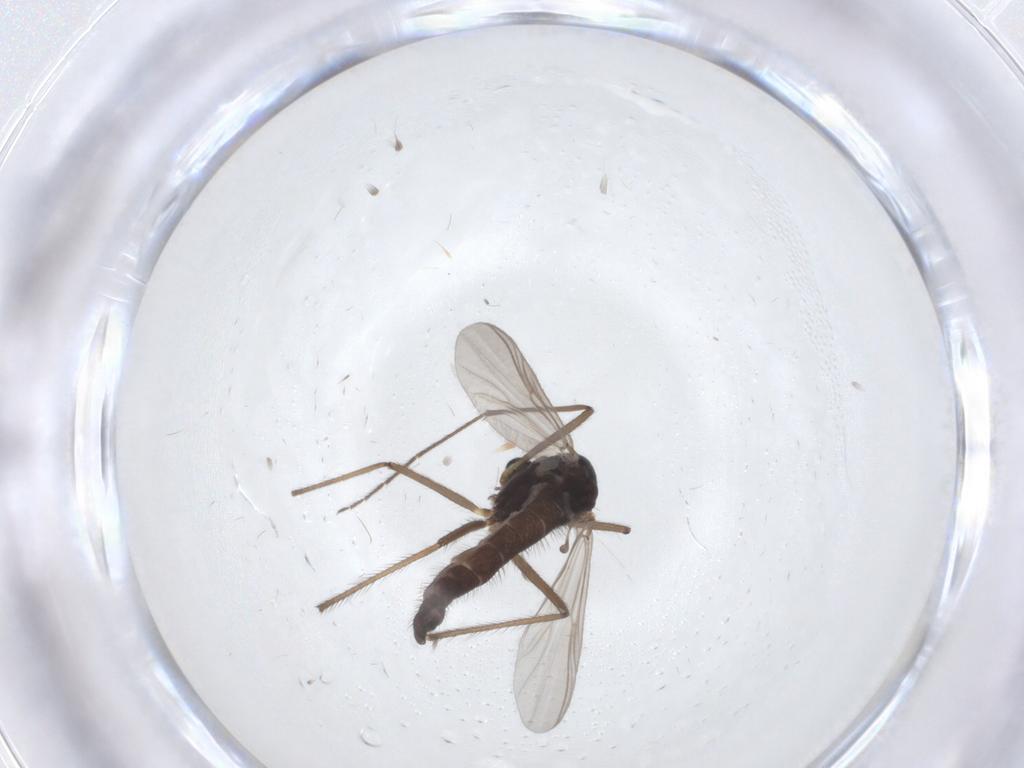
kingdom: Animalia
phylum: Arthropoda
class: Insecta
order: Diptera
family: Chironomidae
